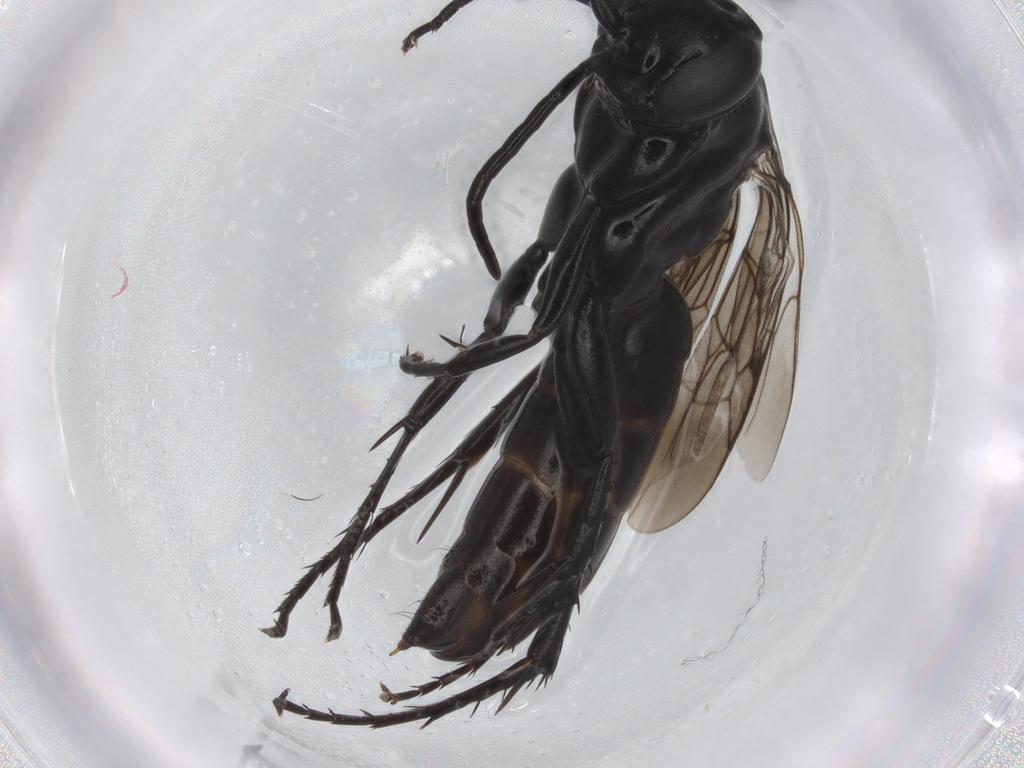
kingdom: Animalia
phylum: Arthropoda
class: Insecta
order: Hymenoptera
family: Pompilidae
